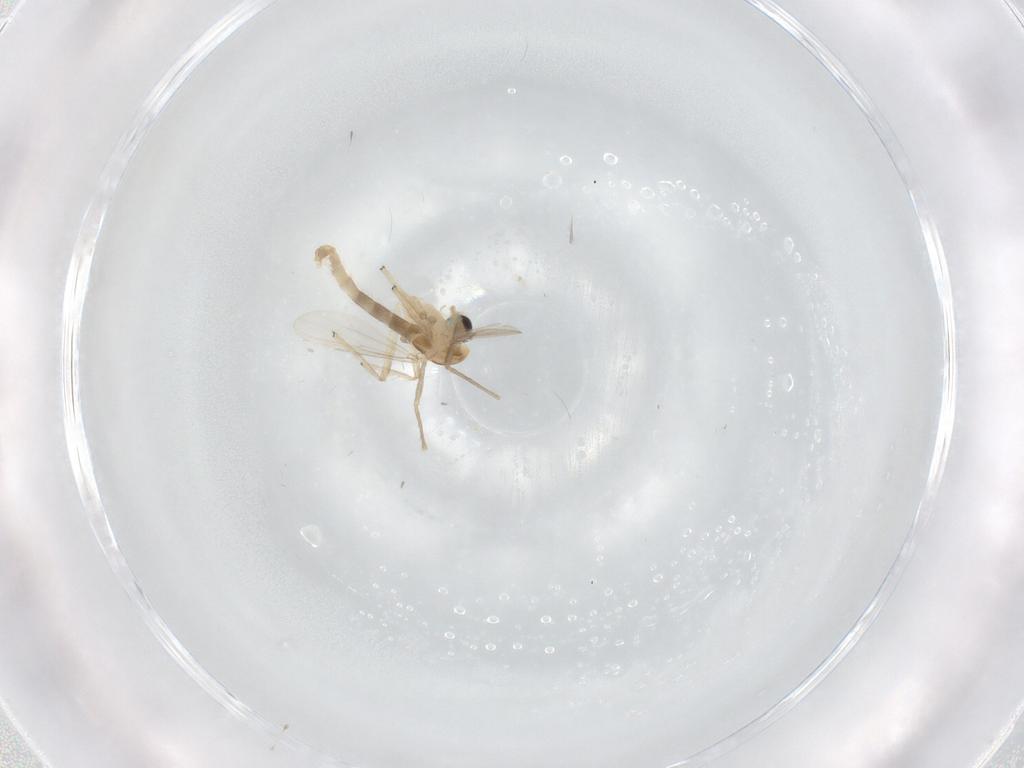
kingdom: Animalia
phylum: Arthropoda
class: Insecta
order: Diptera
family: Chironomidae
